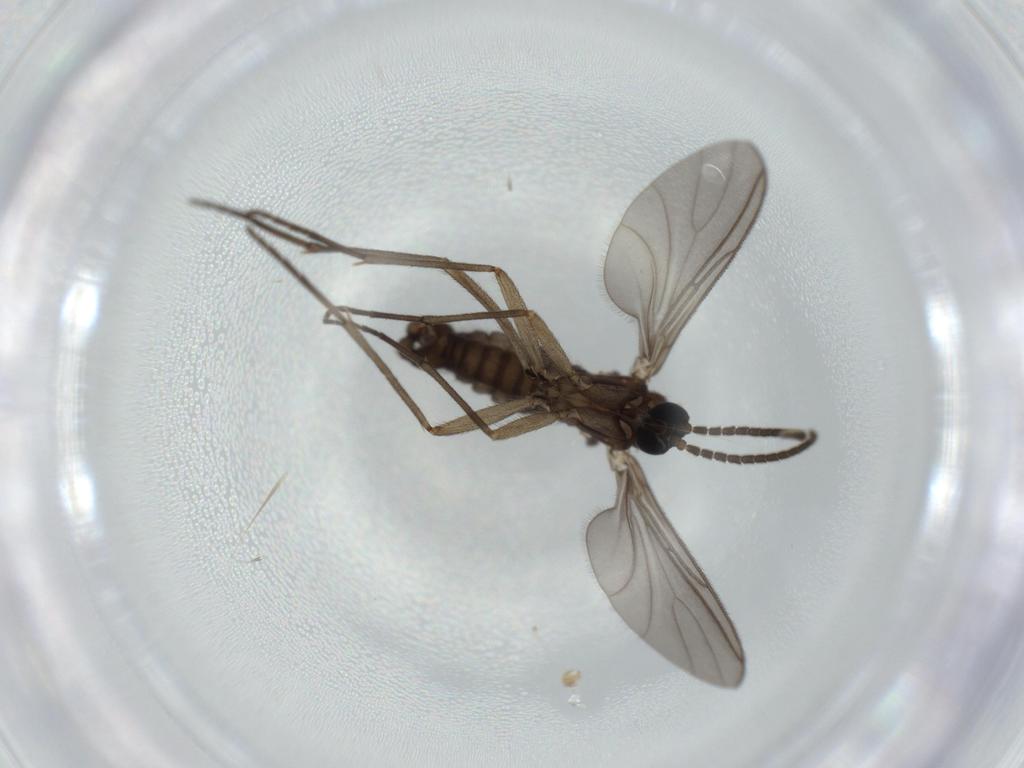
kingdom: Animalia
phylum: Arthropoda
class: Insecta
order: Diptera
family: Sciaridae
